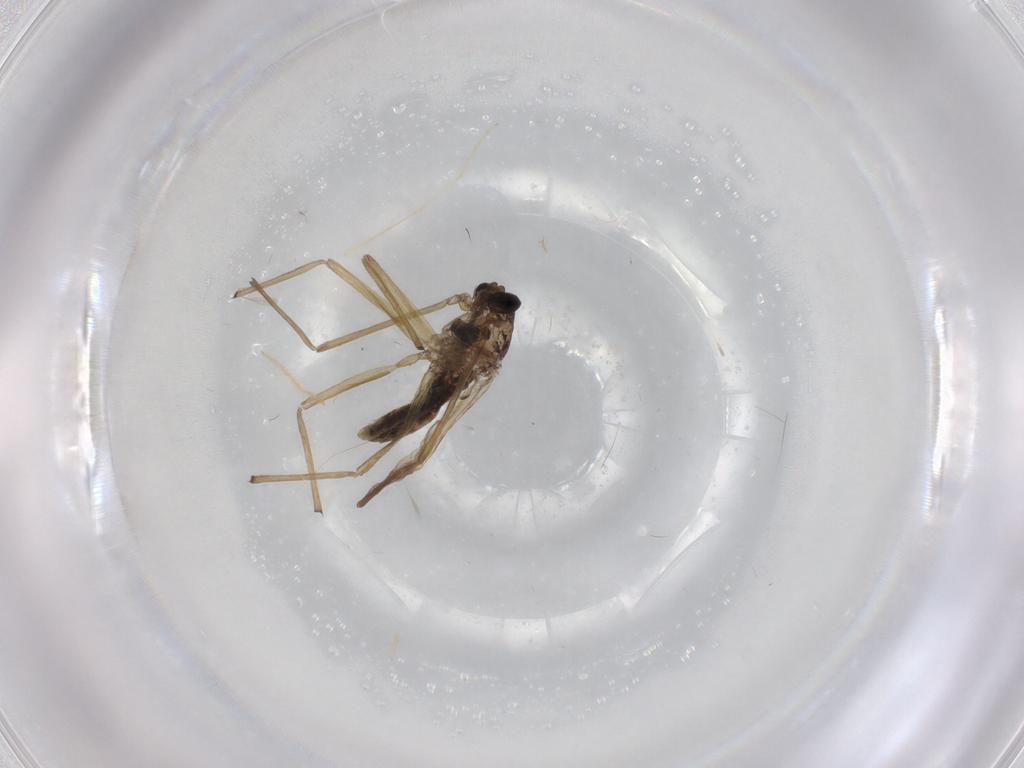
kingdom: Animalia
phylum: Arthropoda
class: Insecta
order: Diptera
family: Chironomidae
